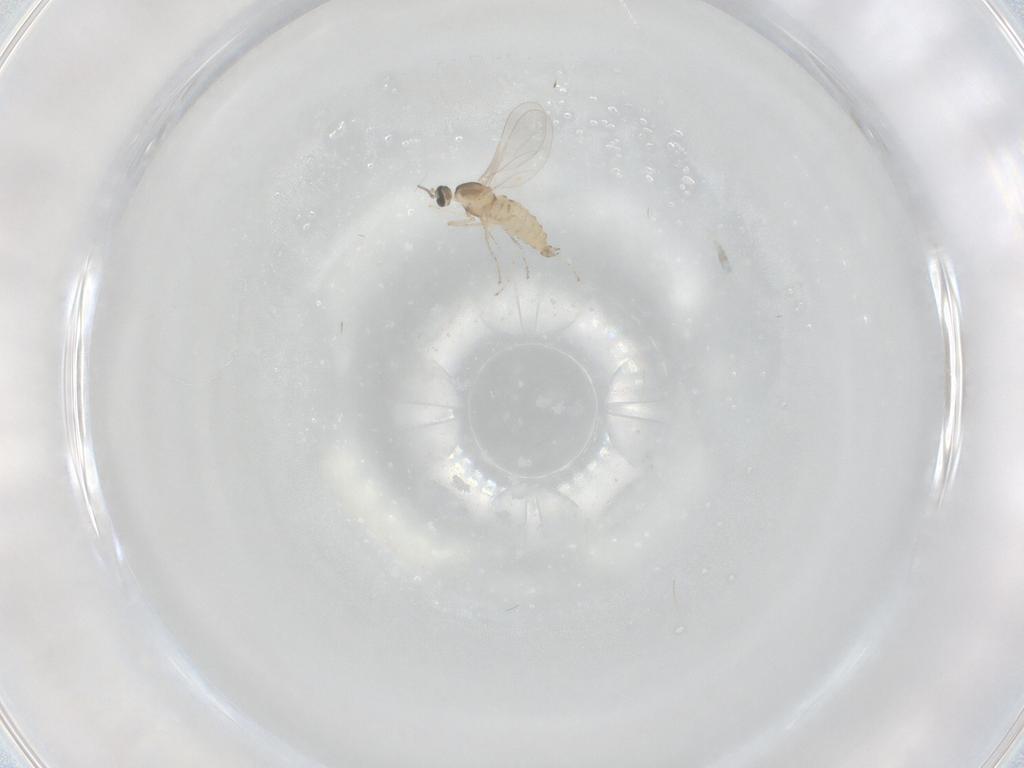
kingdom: Animalia
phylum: Arthropoda
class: Insecta
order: Diptera
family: Cecidomyiidae
